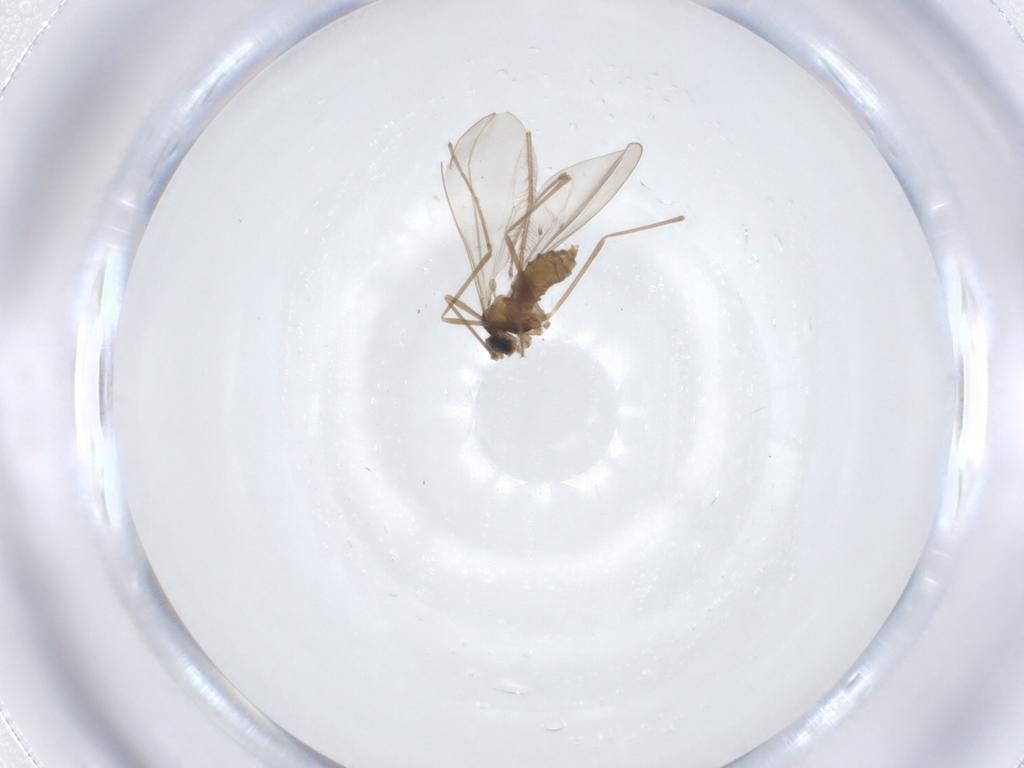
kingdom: Animalia
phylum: Arthropoda
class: Insecta
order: Diptera
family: Cecidomyiidae
